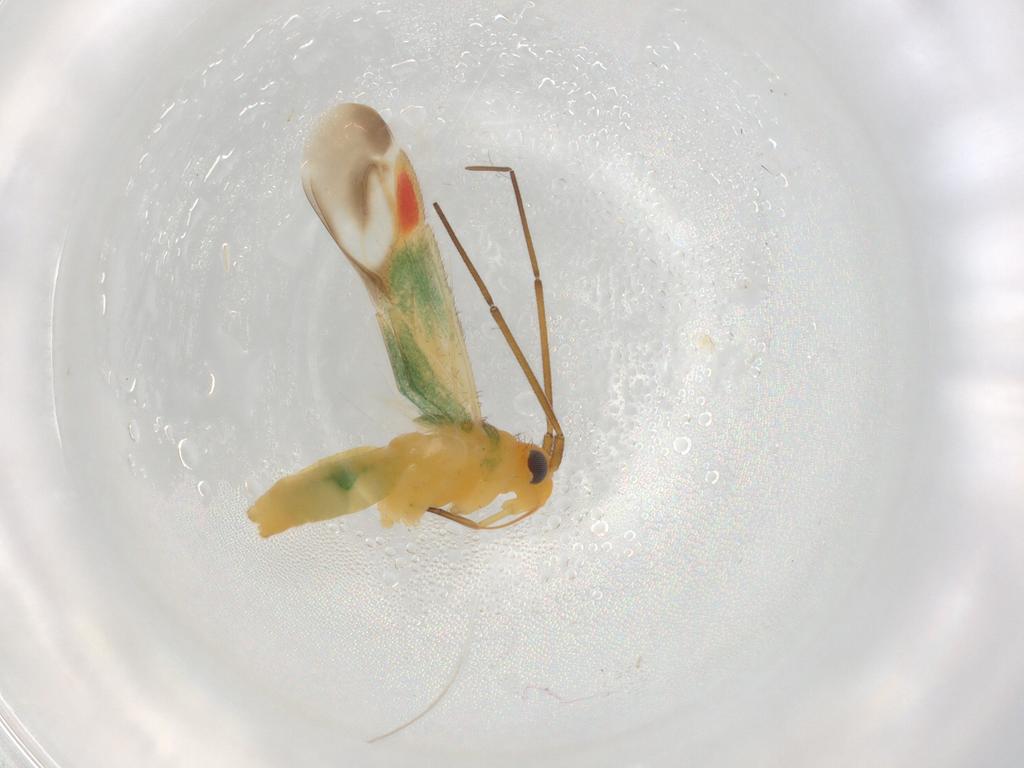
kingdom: Animalia
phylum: Arthropoda
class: Insecta
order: Hemiptera
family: Aphididae
